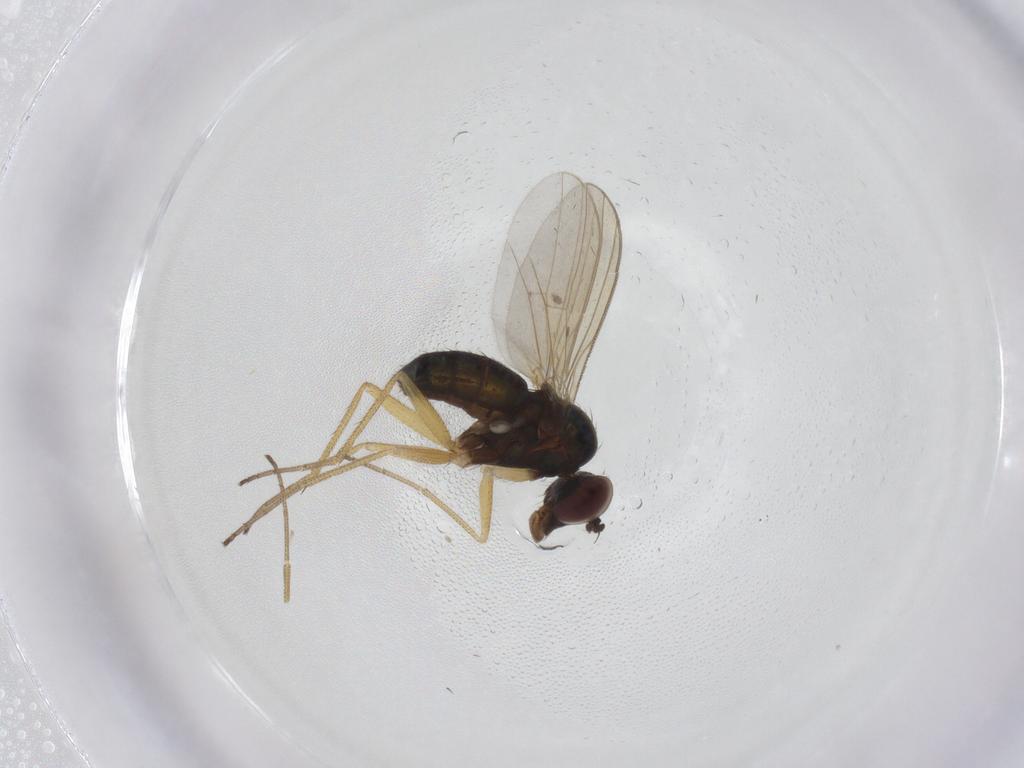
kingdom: Animalia
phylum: Arthropoda
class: Insecta
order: Diptera
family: Dolichopodidae
